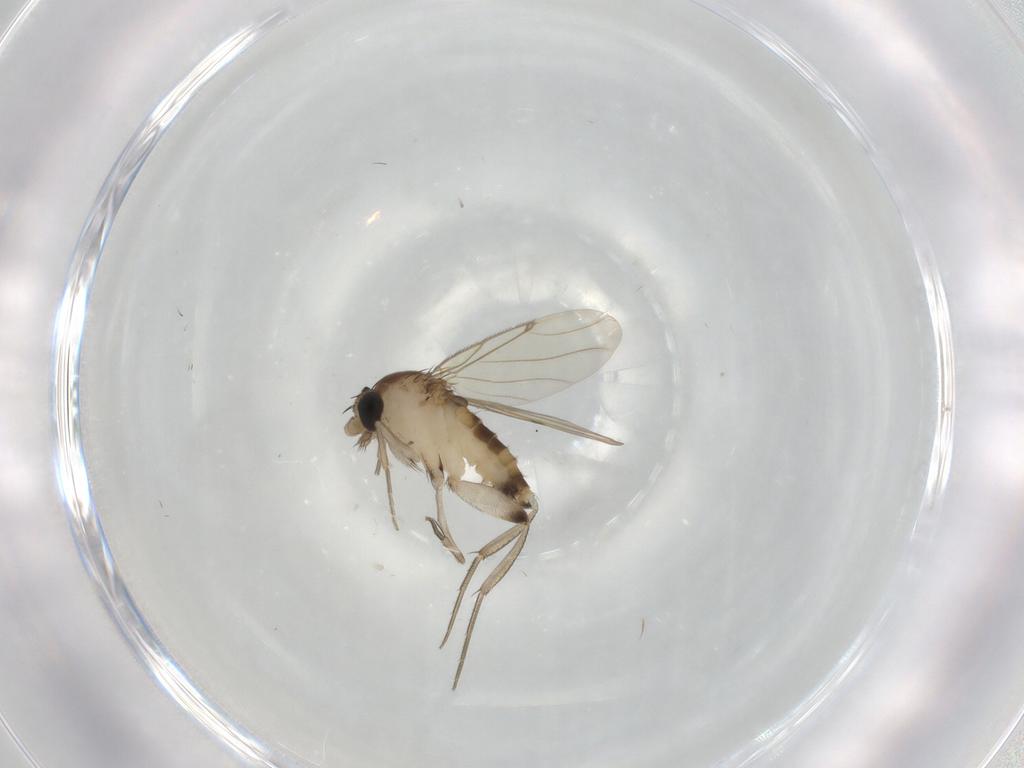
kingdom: Animalia
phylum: Arthropoda
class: Insecta
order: Diptera
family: Psychodidae
